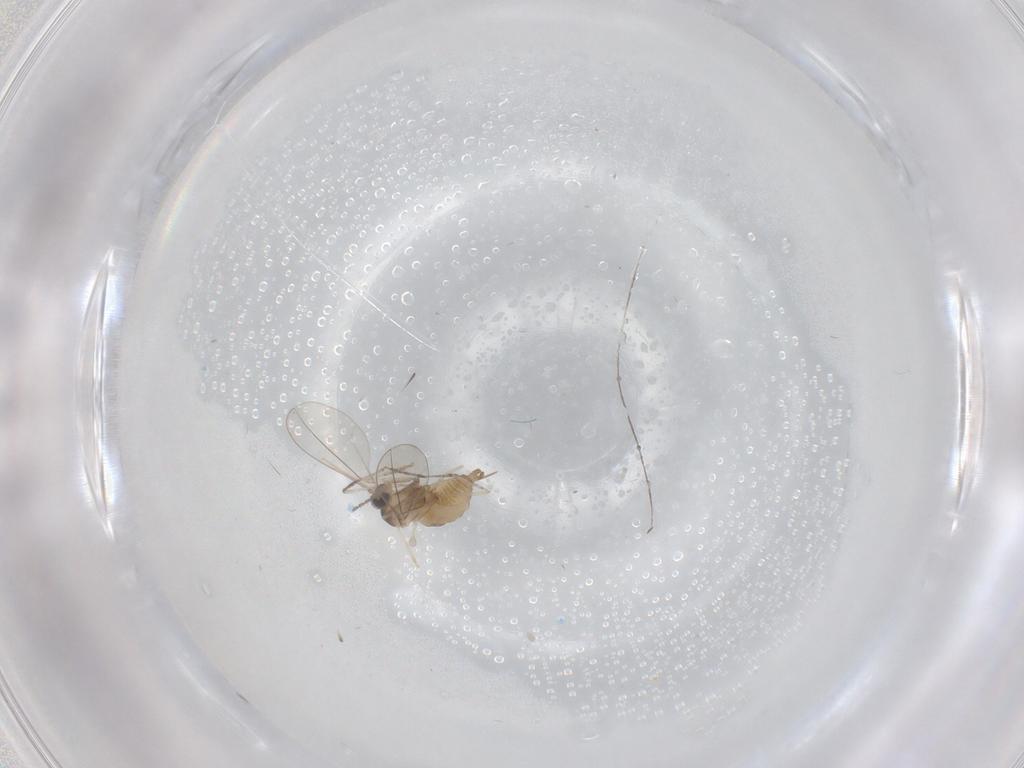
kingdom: Animalia
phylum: Arthropoda
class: Insecta
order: Diptera
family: Cecidomyiidae
